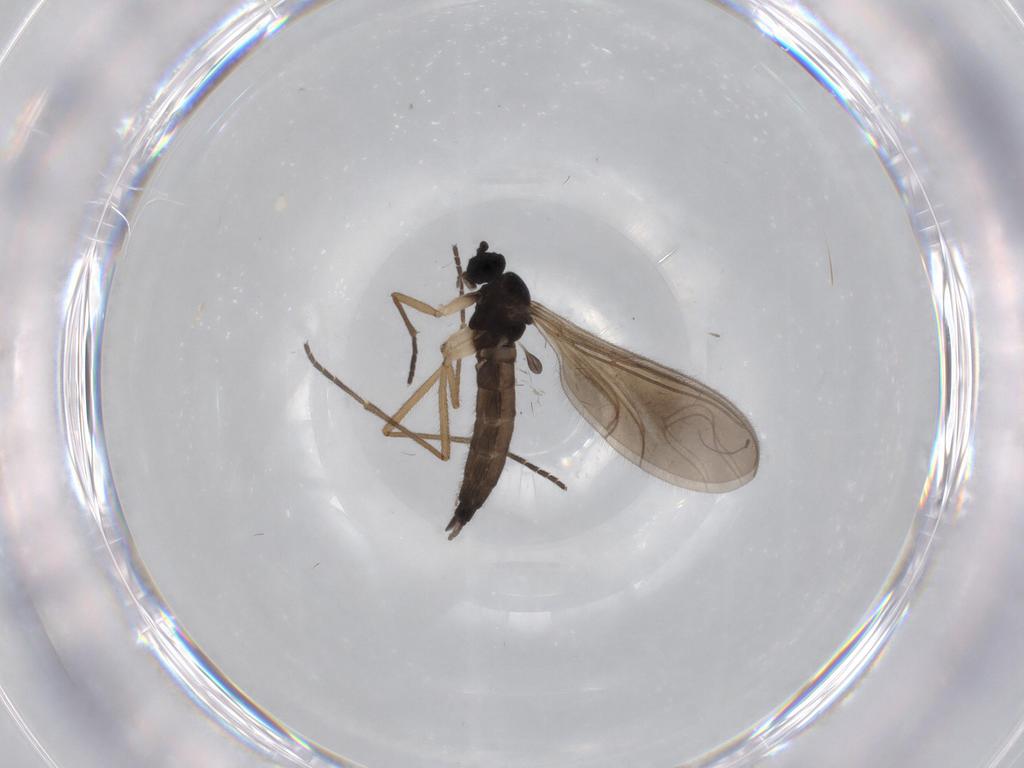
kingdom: Animalia
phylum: Arthropoda
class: Insecta
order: Diptera
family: Sciaridae
